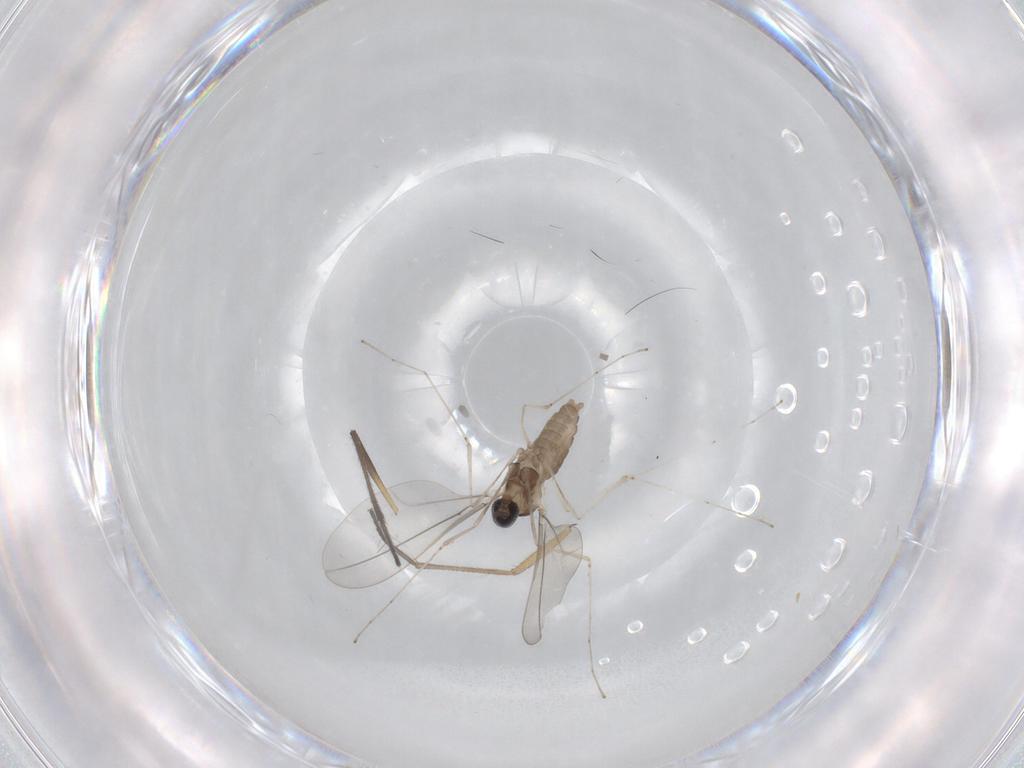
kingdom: Animalia
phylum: Arthropoda
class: Insecta
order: Diptera
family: Cecidomyiidae
